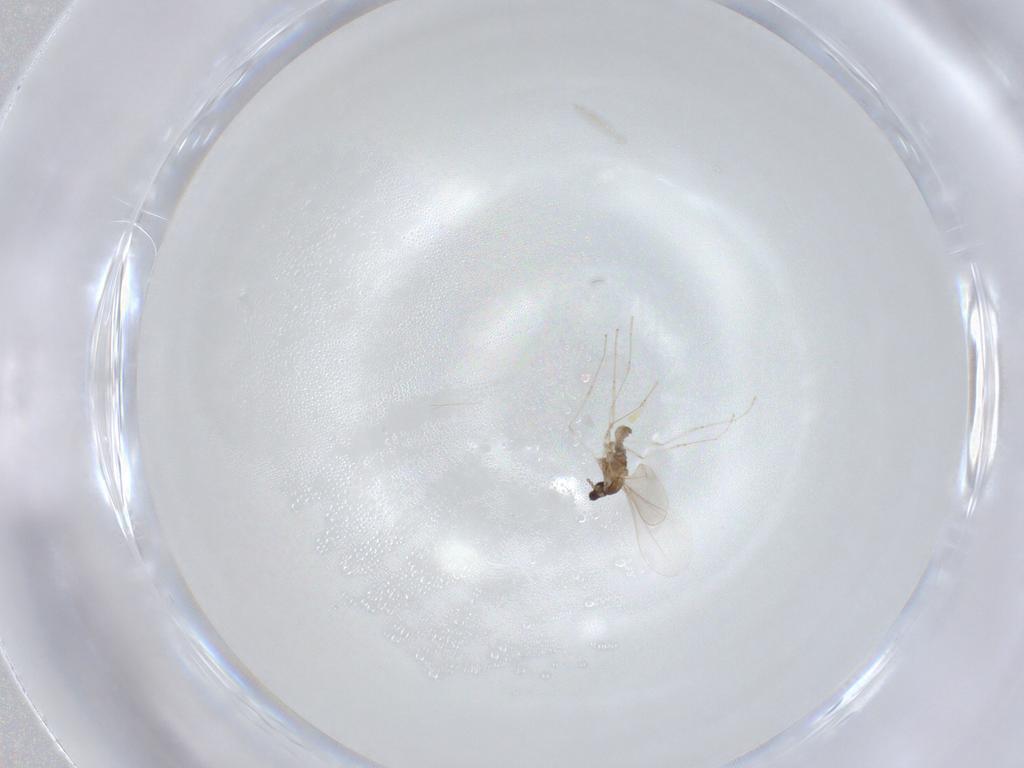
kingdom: Animalia
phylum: Arthropoda
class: Insecta
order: Diptera
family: Cecidomyiidae
